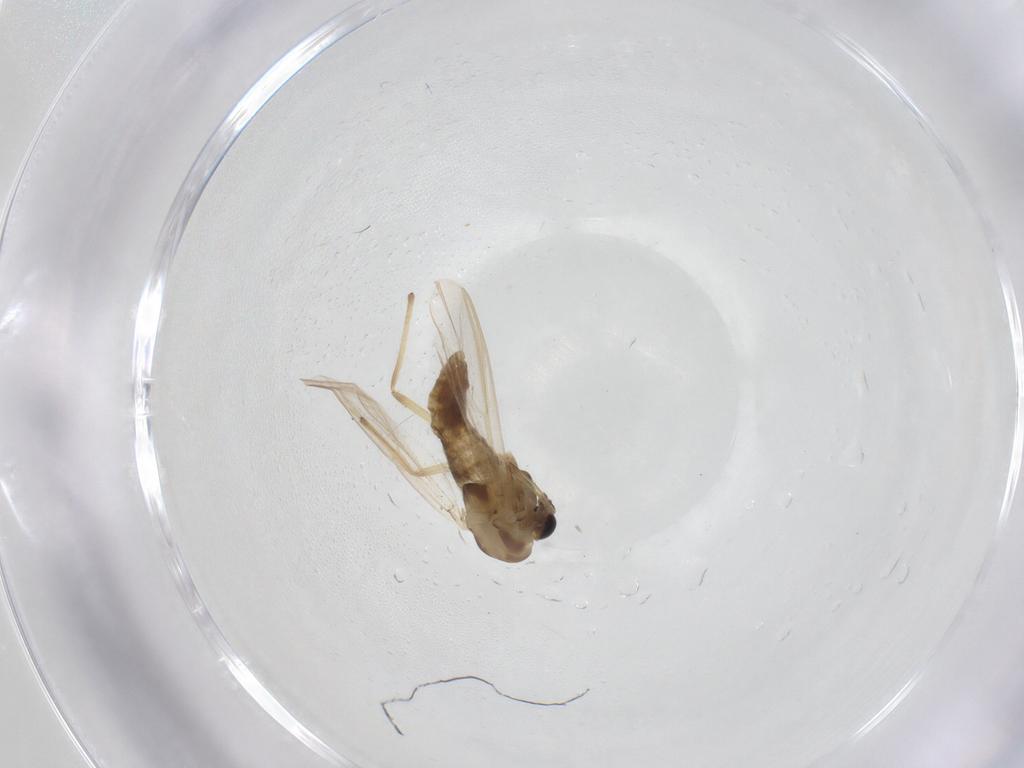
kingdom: Animalia
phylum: Arthropoda
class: Insecta
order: Diptera
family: Chironomidae
